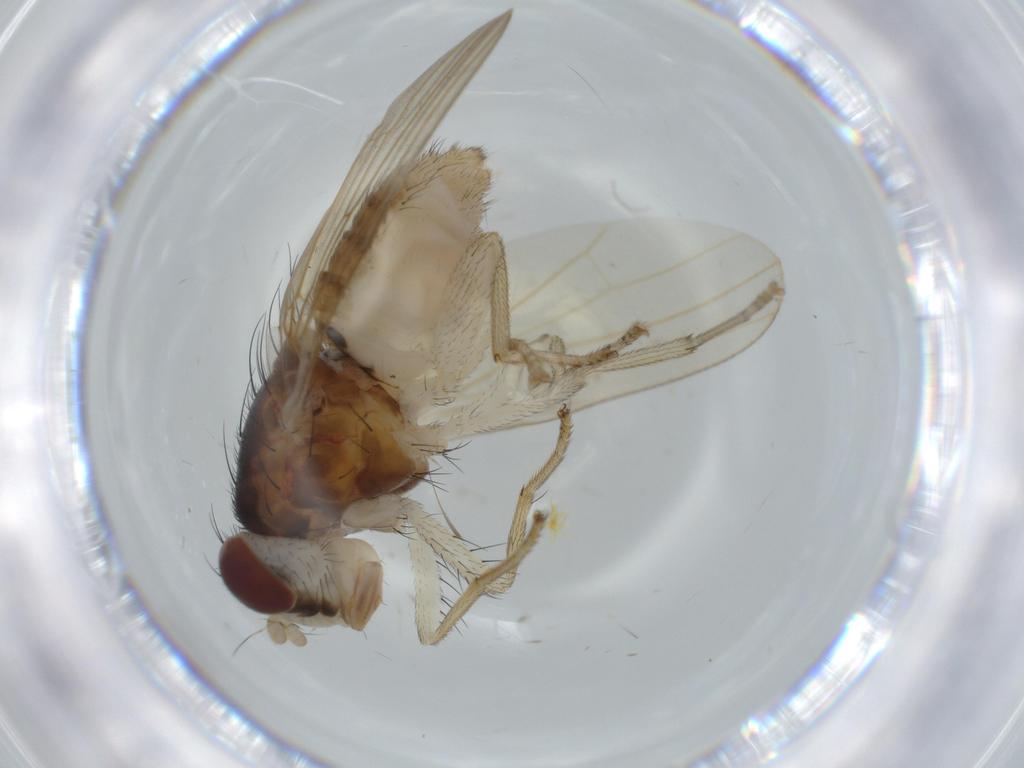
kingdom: Animalia
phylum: Arthropoda
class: Insecta
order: Diptera
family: Lauxaniidae
